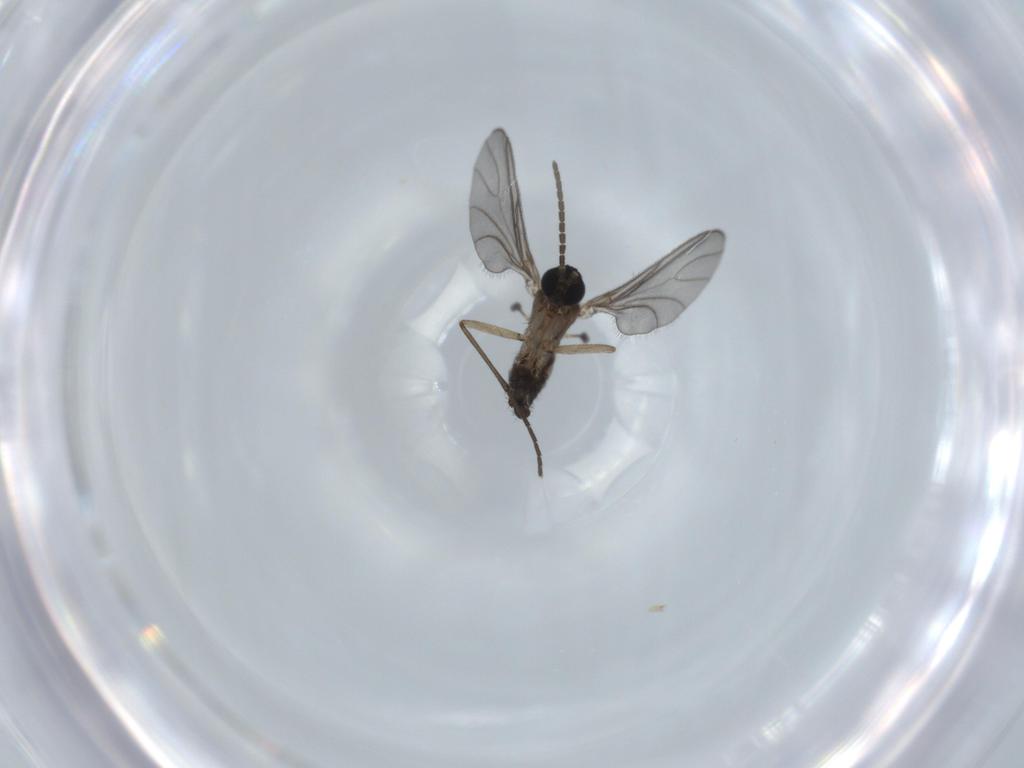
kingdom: Animalia
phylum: Arthropoda
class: Insecta
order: Diptera
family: Sciaridae
